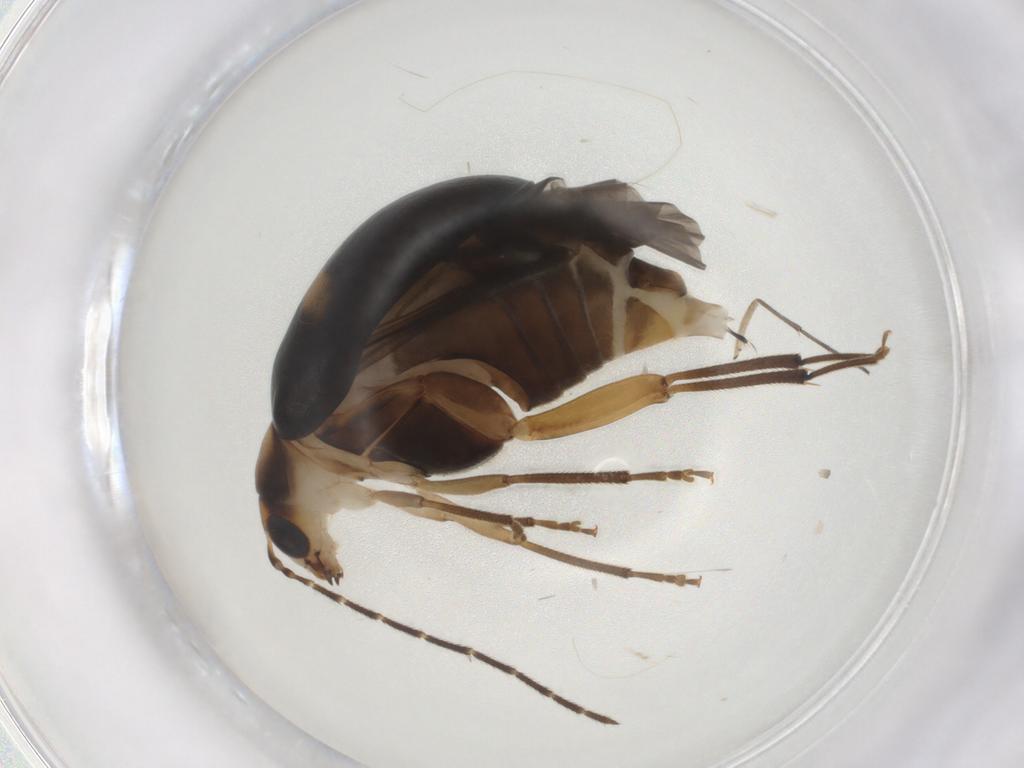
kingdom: Animalia
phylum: Arthropoda
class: Insecta
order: Coleoptera
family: Chrysomelidae
